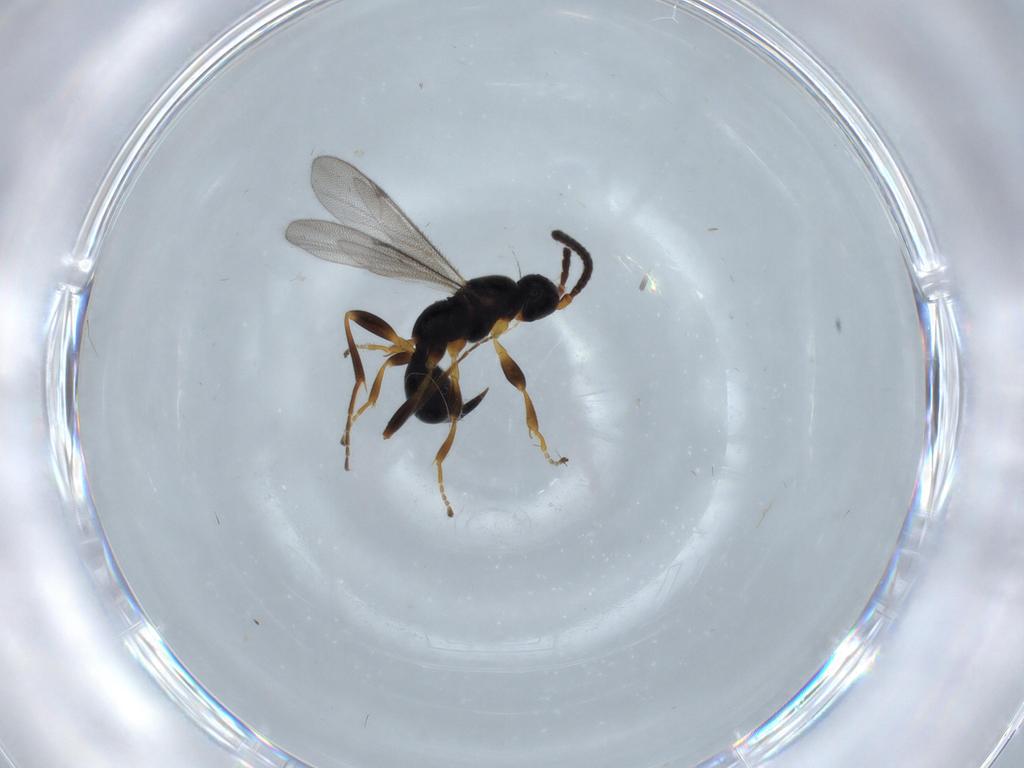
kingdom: Animalia
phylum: Arthropoda
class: Insecta
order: Hymenoptera
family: Proctotrupidae
